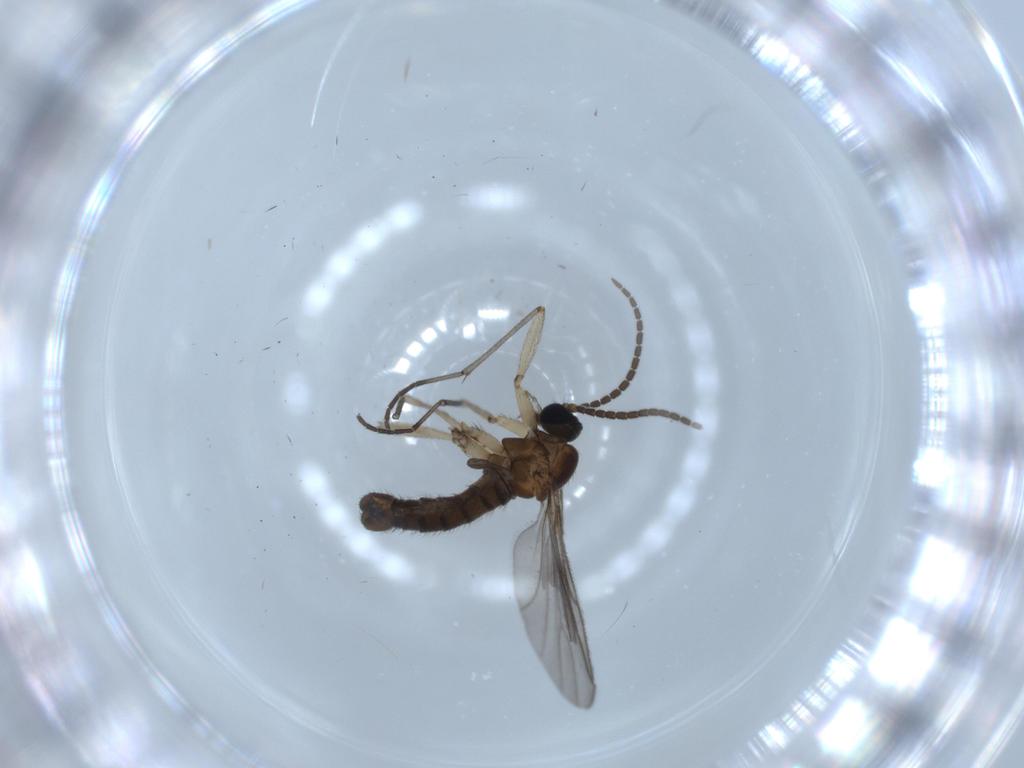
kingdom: Animalia
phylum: Arthropoda
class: Insecta
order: Diptera
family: Sciaridae
